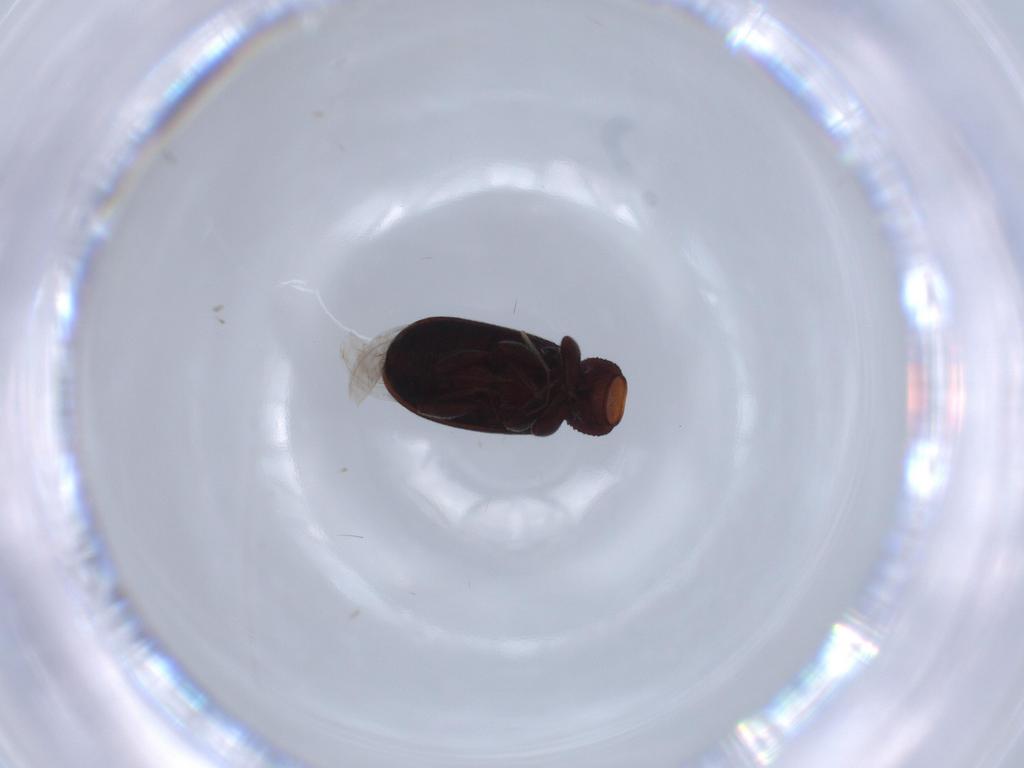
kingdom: Animalia
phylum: Arthropoda
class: Insecta
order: Coleoptera
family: Latridiidae
